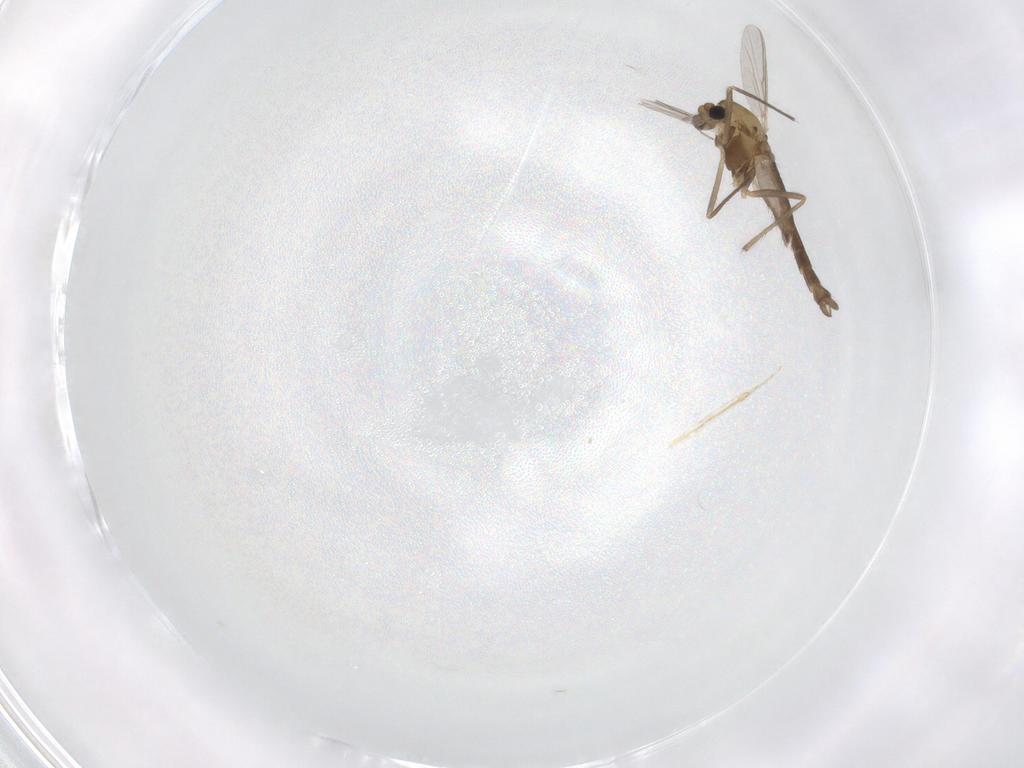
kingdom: Animalia
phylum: Arthropoda
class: Insecta
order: Diptera
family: Chironomidae
